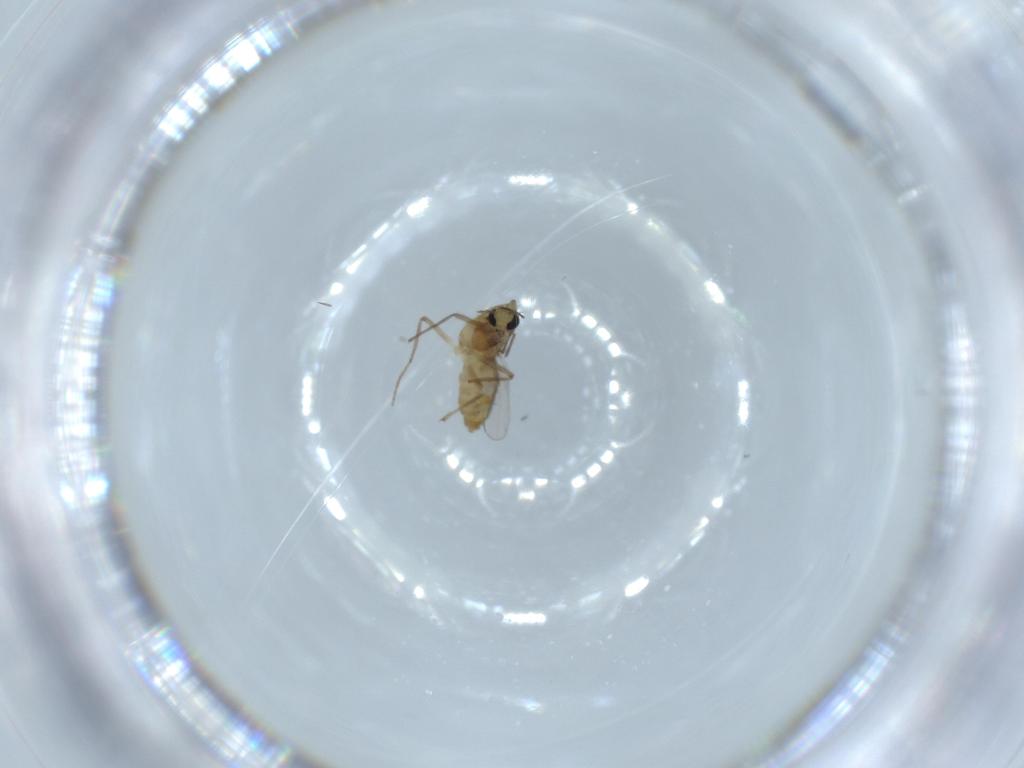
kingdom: Animalia
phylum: Arthropoda
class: Insecta
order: Diptera
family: Chironomidae
